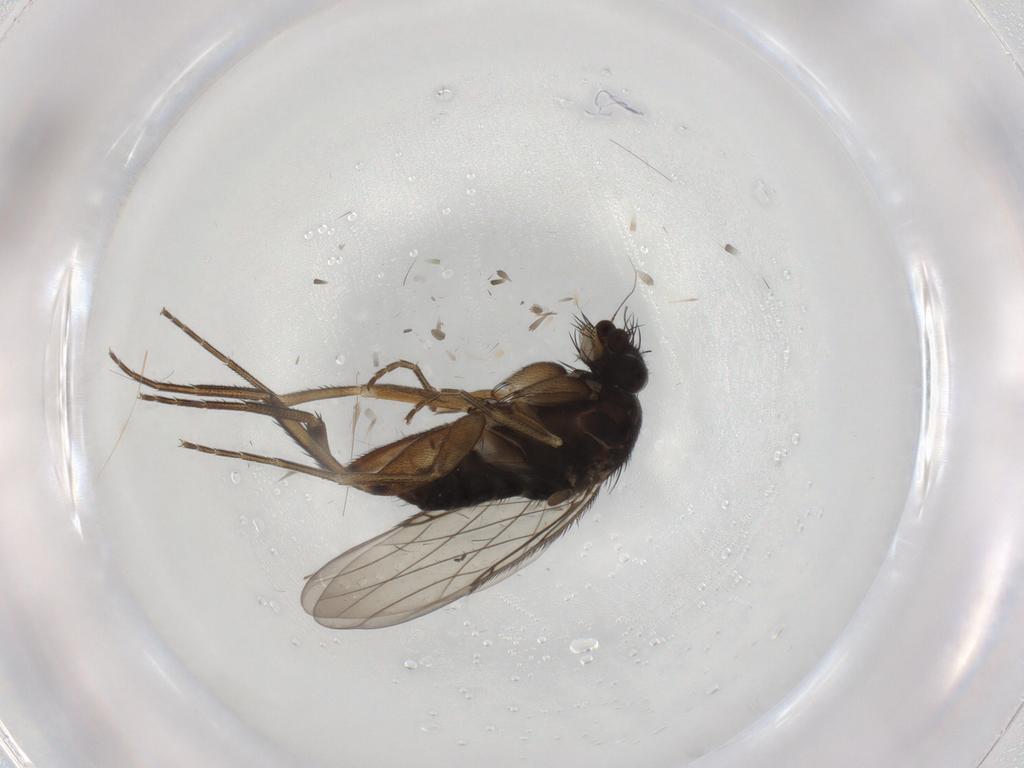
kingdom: Animalia
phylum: Arthropoda
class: Insecta
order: Diptera
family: Phoridae
